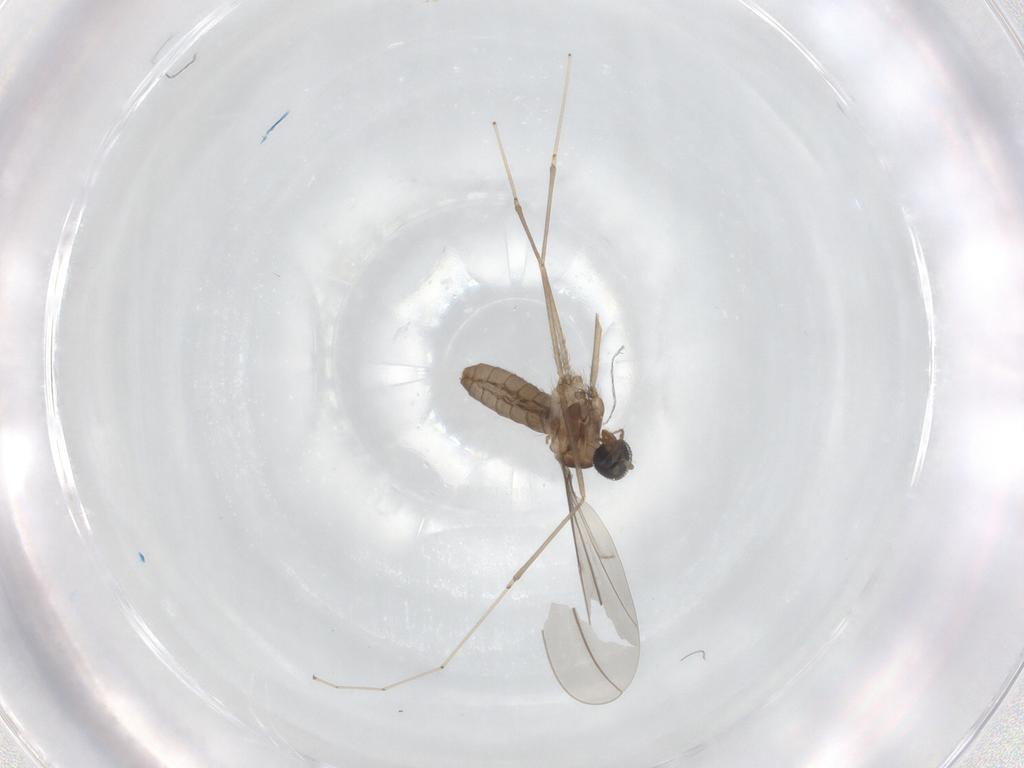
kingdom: Animalia
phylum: Arthropoda
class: Insecta
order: Diptera
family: Cecidomyiidae
